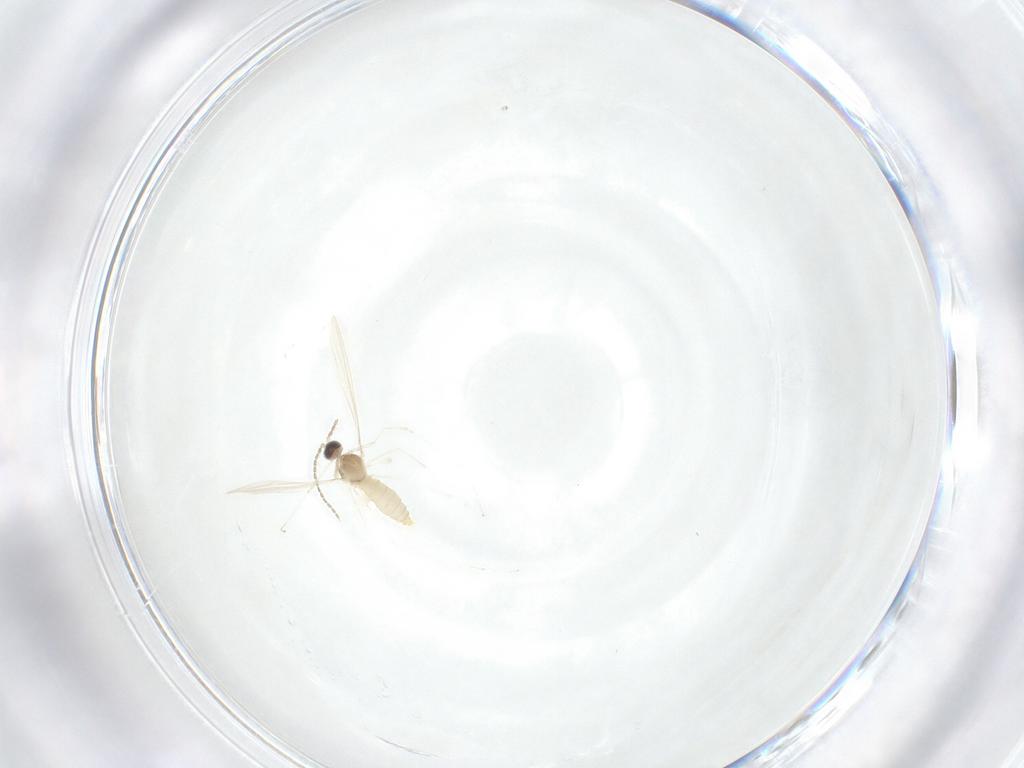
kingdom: Animalia
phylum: Arthropoda
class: Insecta
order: Diptera
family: Cecidomyiidae
